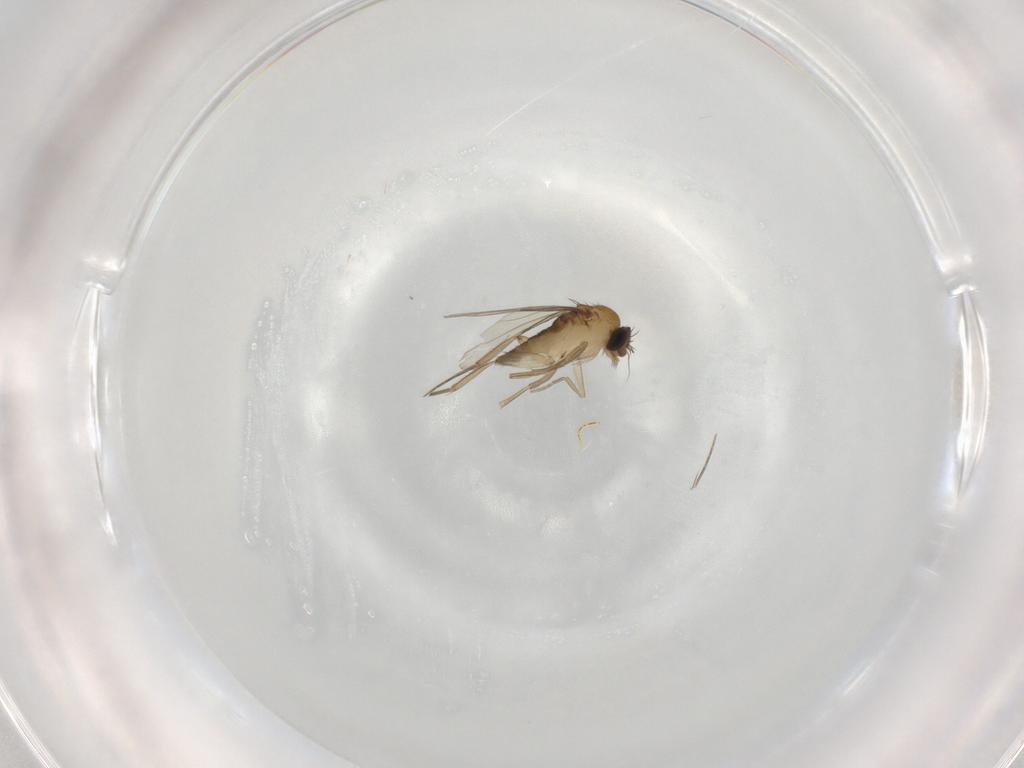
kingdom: Animalia
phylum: Arthropoda
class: Insecta
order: Diptera
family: Phoridae
